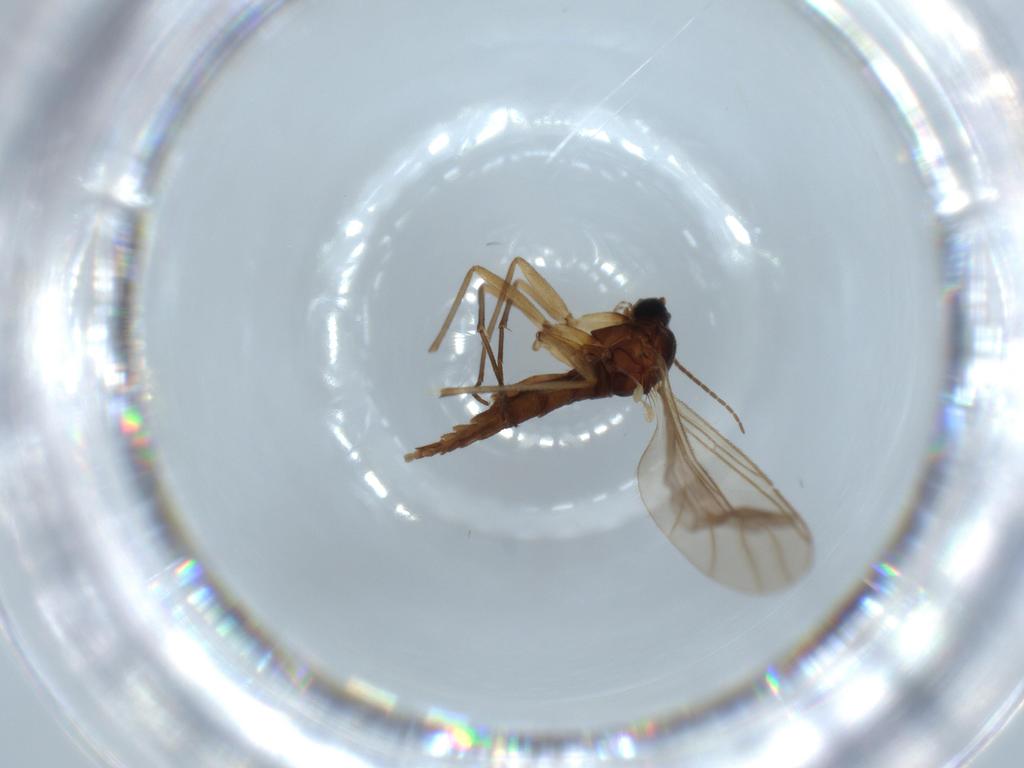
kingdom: Animalia
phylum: Arthropoda
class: Insecta
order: Diptera
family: Sciaridae
